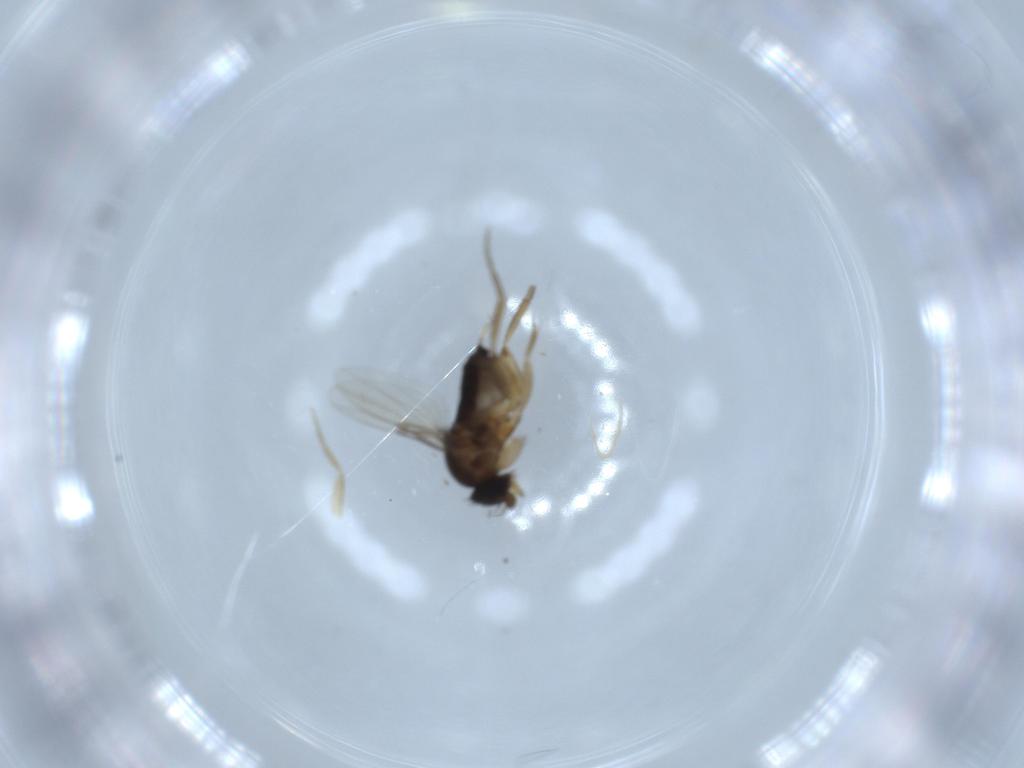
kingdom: Animalia
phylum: Arthropoda
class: Insecta
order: Diptera
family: Phoridae
